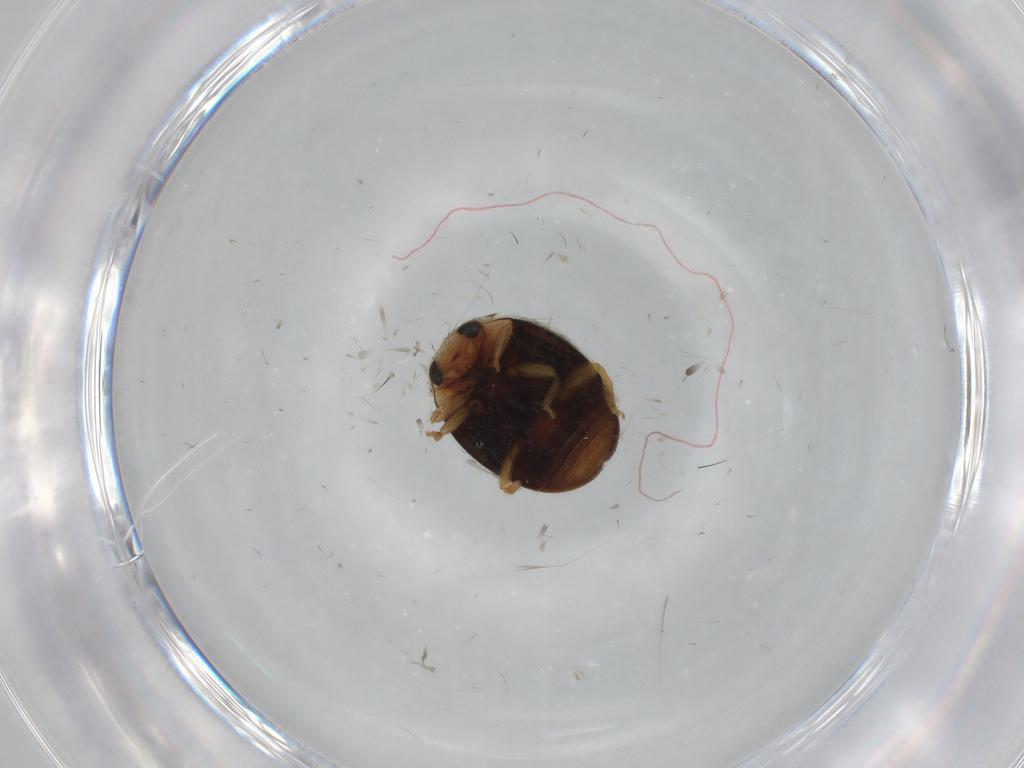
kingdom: Animalia
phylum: Arthropoda
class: Insecta
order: Coleoptera
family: Coccinellidae
